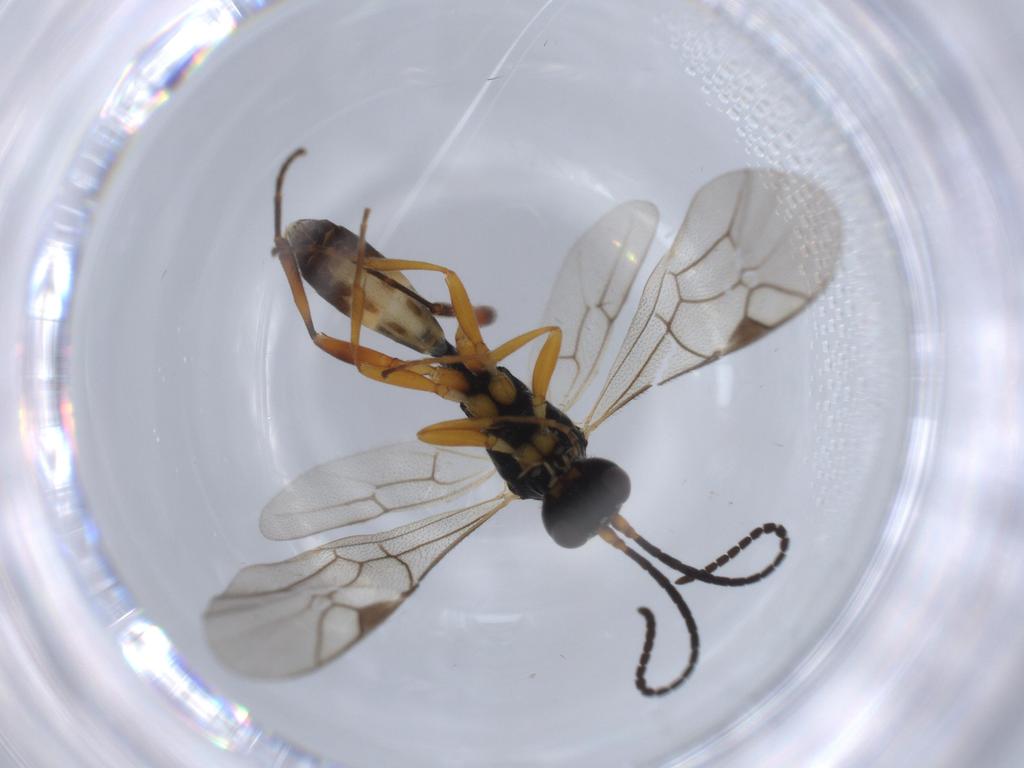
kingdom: Animalia
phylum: Arthropoda
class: Insecta
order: Hymenoptera
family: Ichneumonidae
